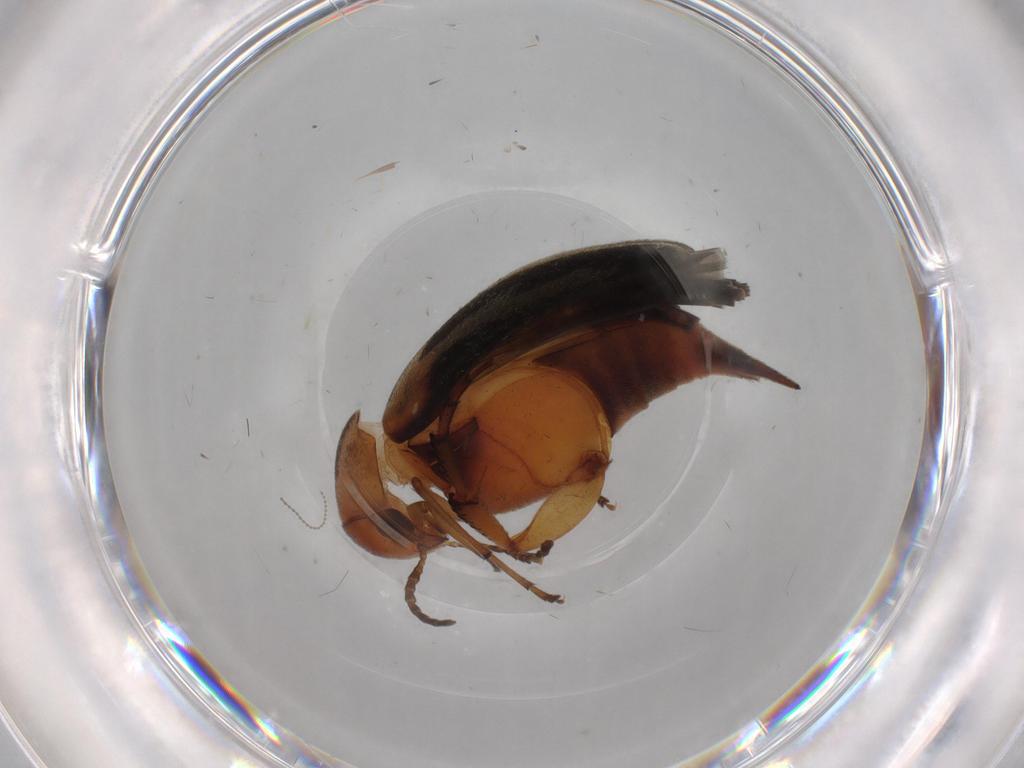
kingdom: Animalia
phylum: Arthropoda
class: Insecta
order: Coleoptera
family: Mordellidae
